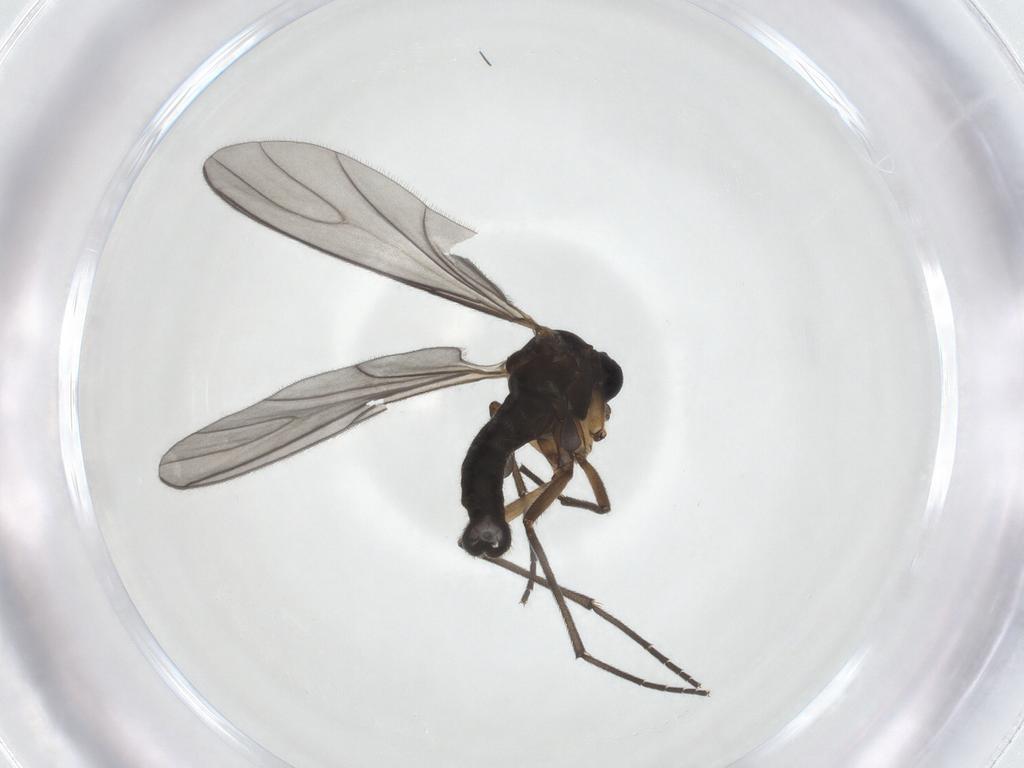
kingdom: Animalia
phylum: Arthropoda
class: Insecta
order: Diptera
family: Sciaridae
